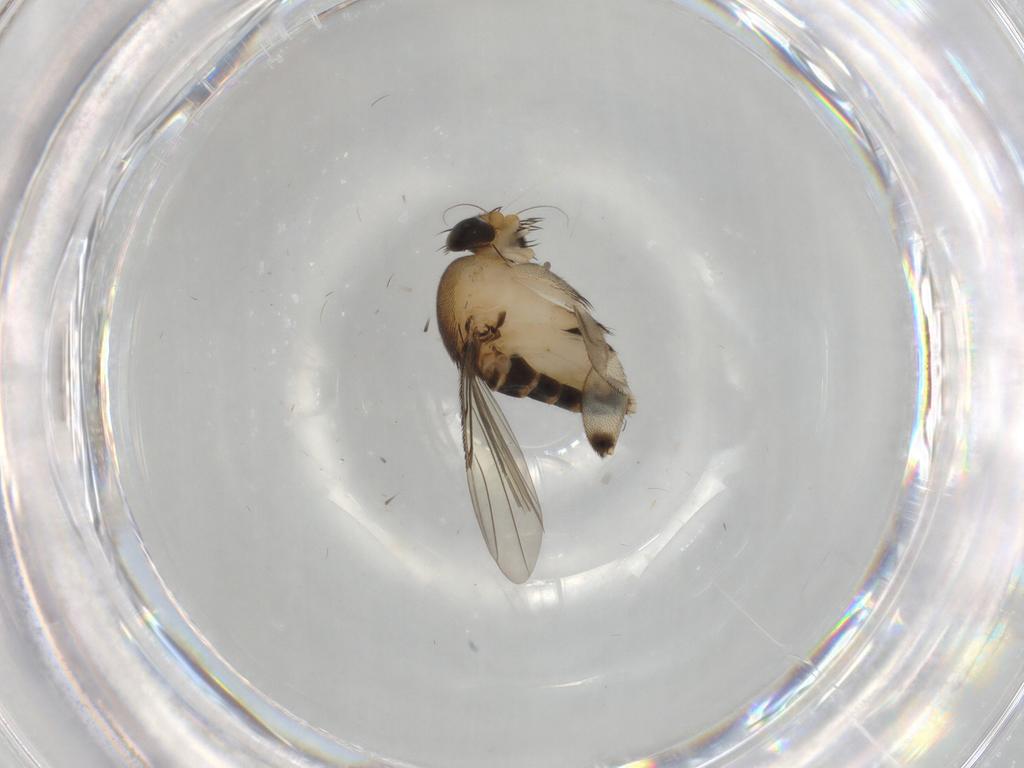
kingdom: Animalia
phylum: Arthropoda
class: Insecta
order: Diptera
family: Phoridae
